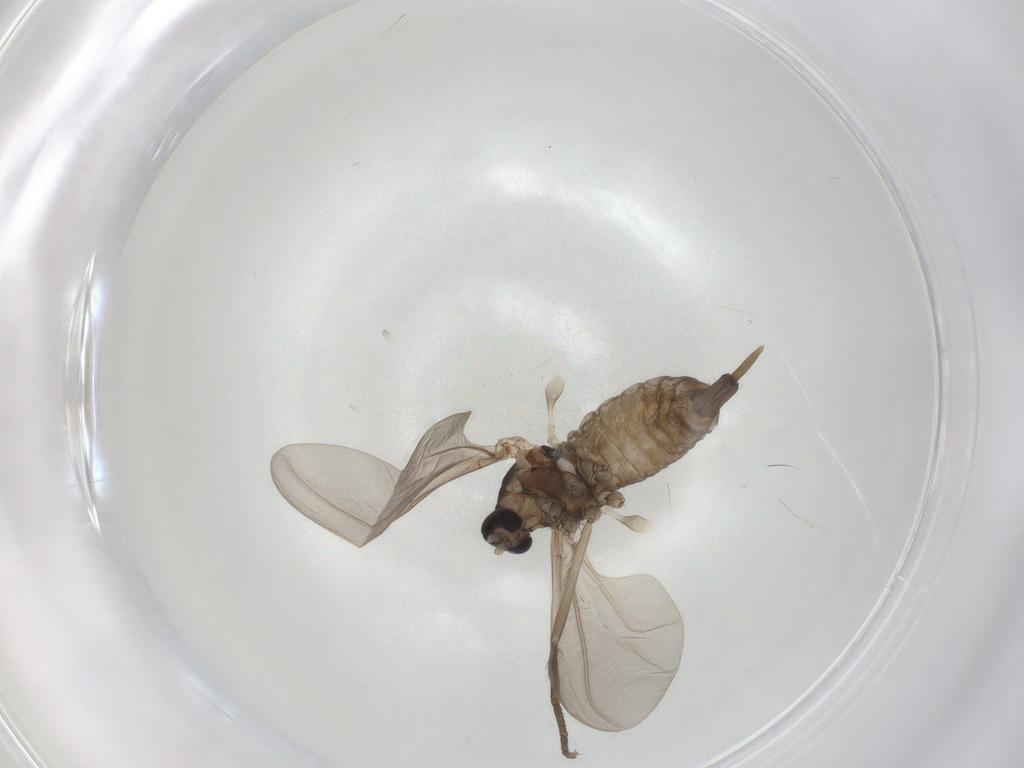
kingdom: Animalia
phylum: Arthropoda
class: Insecta
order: Diptera
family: Cecidomyiidae
